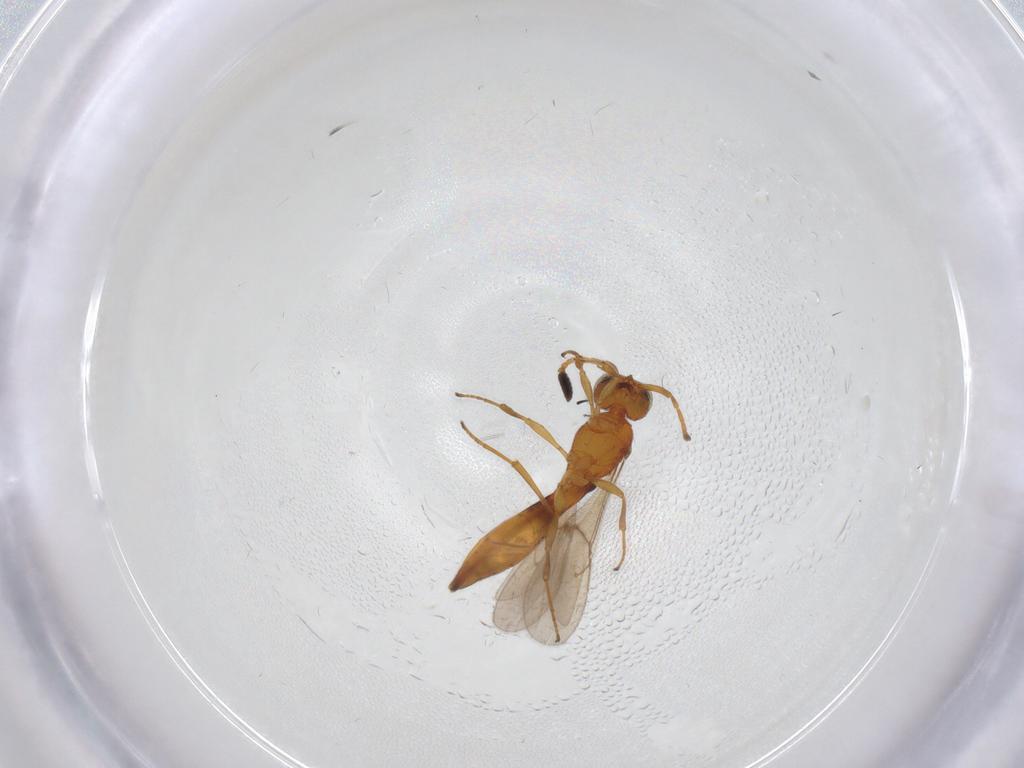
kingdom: Animalia
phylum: Arthropoda
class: Insecta
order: Hymenoptera
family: Scelionidae
